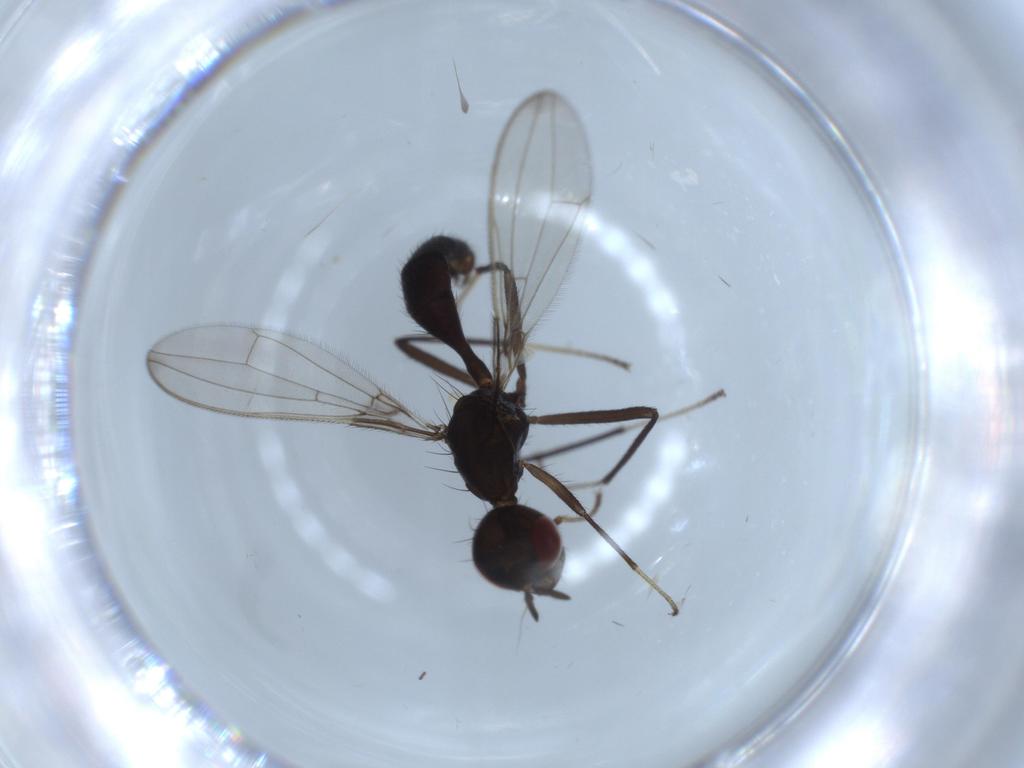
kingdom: Animalia
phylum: Arthropoda
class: Insecta
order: Diptera
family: Richardiidae
